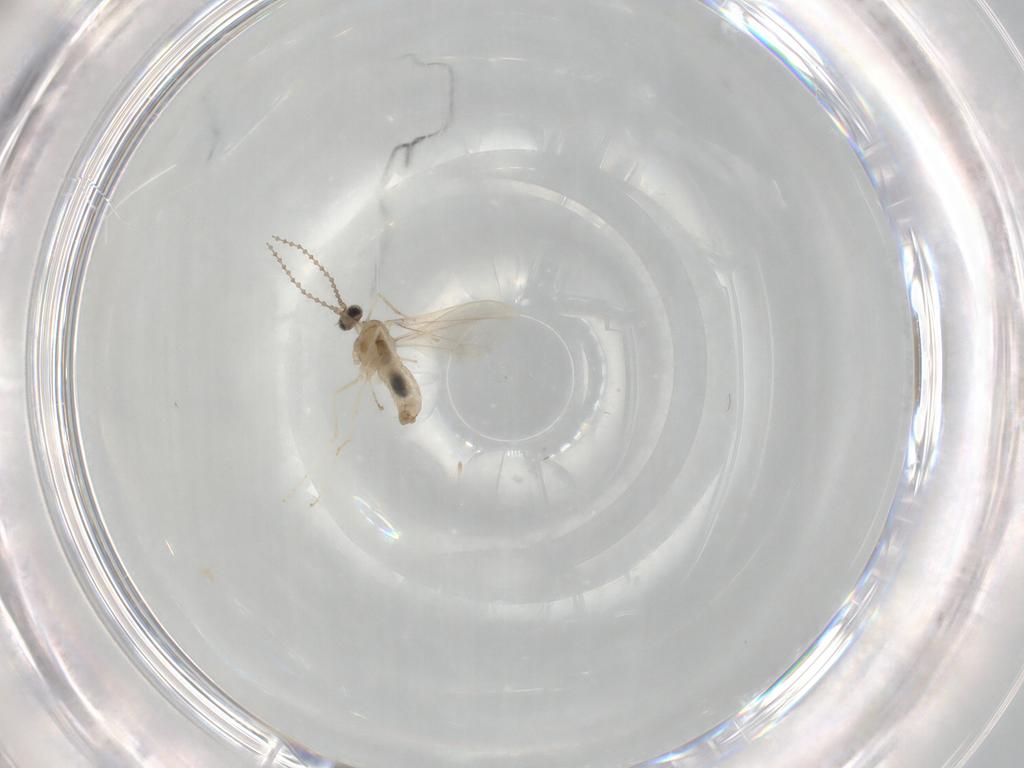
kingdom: Animalia
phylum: Arthropoda
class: Insecta
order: Diptera
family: Cecidomyiidae
